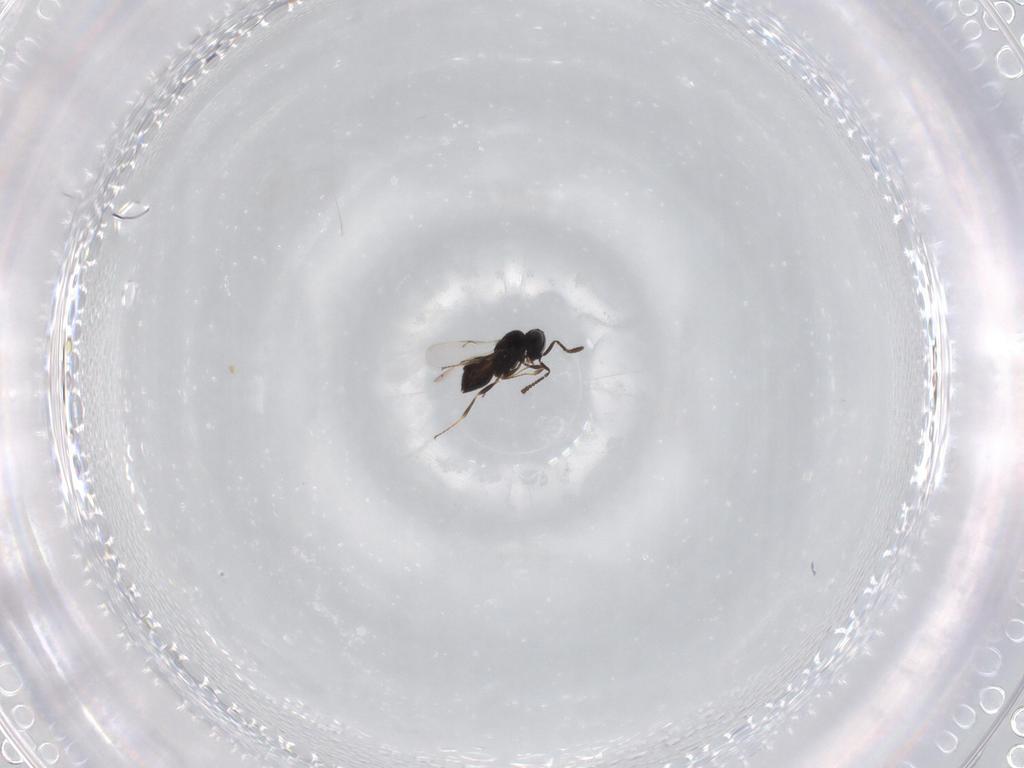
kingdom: Animalia
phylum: Arthropoda
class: Insecta
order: Hymenoptera
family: Scelionidae
